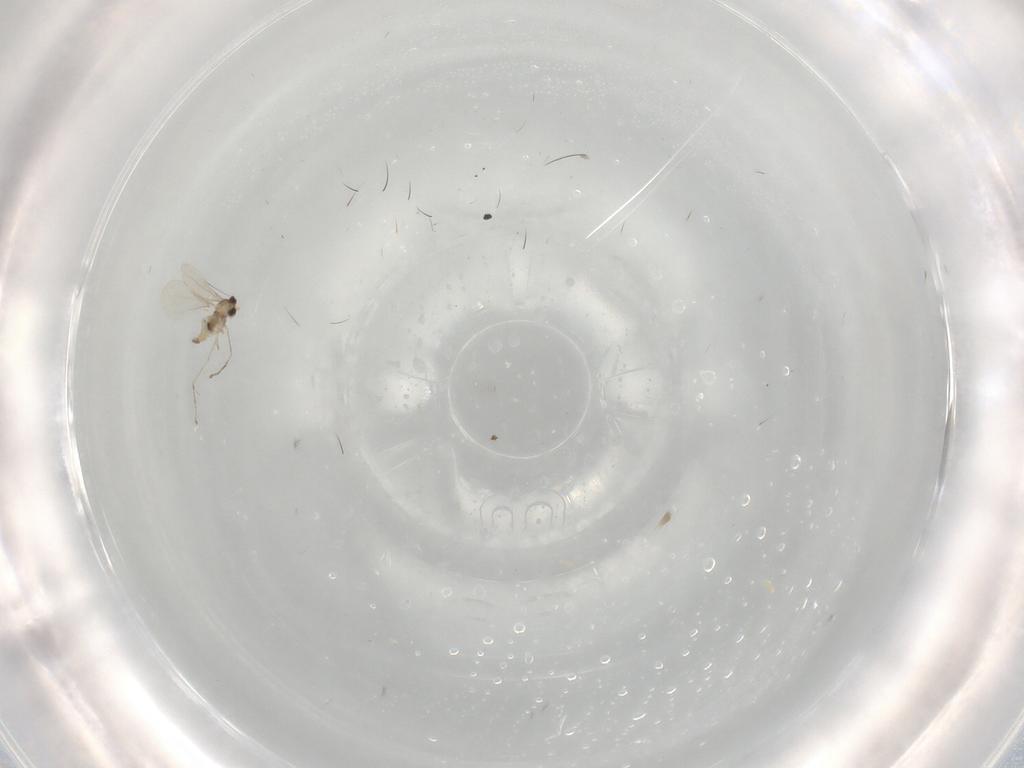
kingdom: Animalia
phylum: Arthropoda
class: Insecta
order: Diptera
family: Cecidomyiidae
